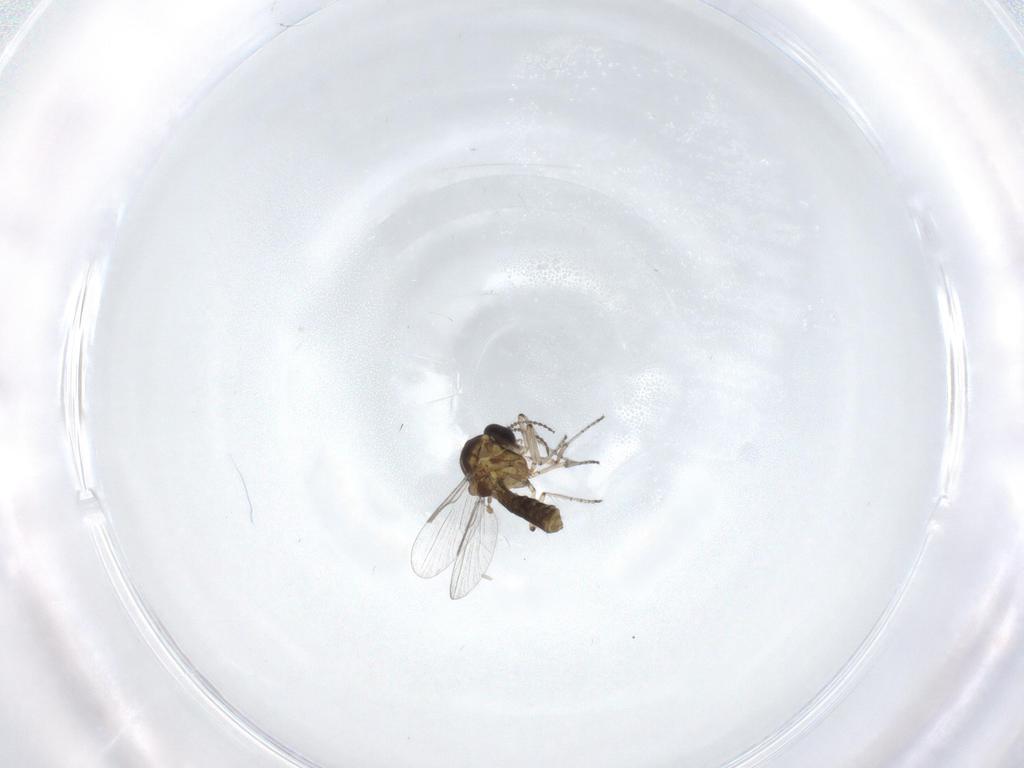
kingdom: Animalia
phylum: Arthropoda
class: Insecta
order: Diptera
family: Ceratopogonidae
